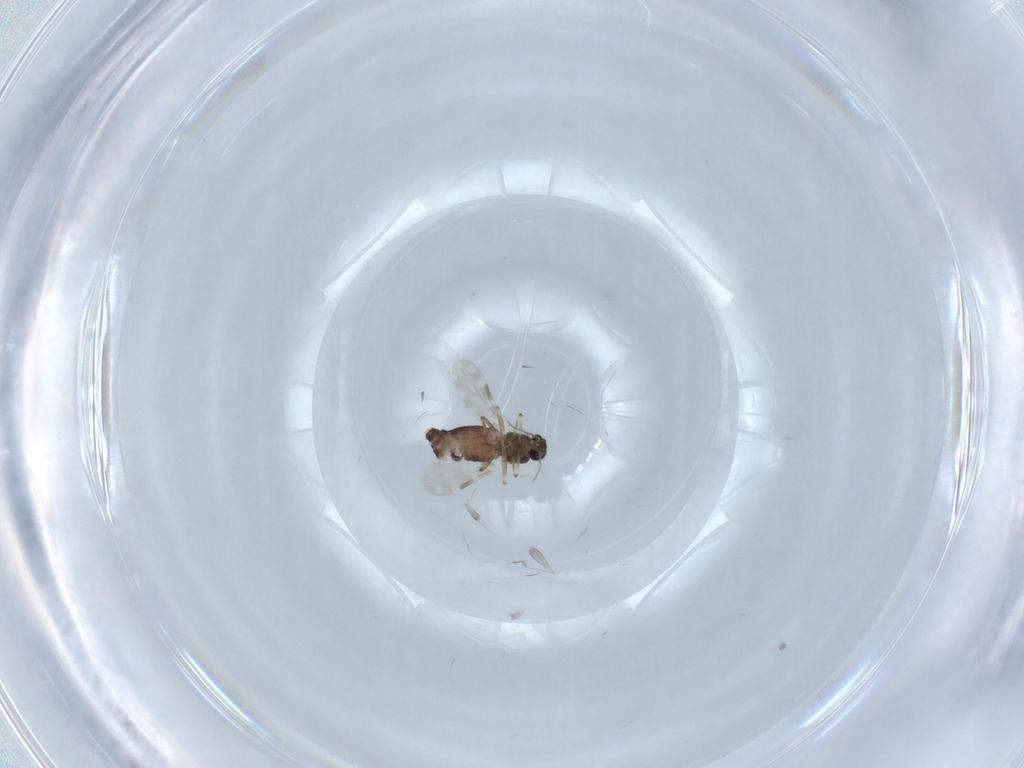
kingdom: Animalia
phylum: Arthropoda
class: Insecta
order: Diptera
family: Ceratopogonidae
